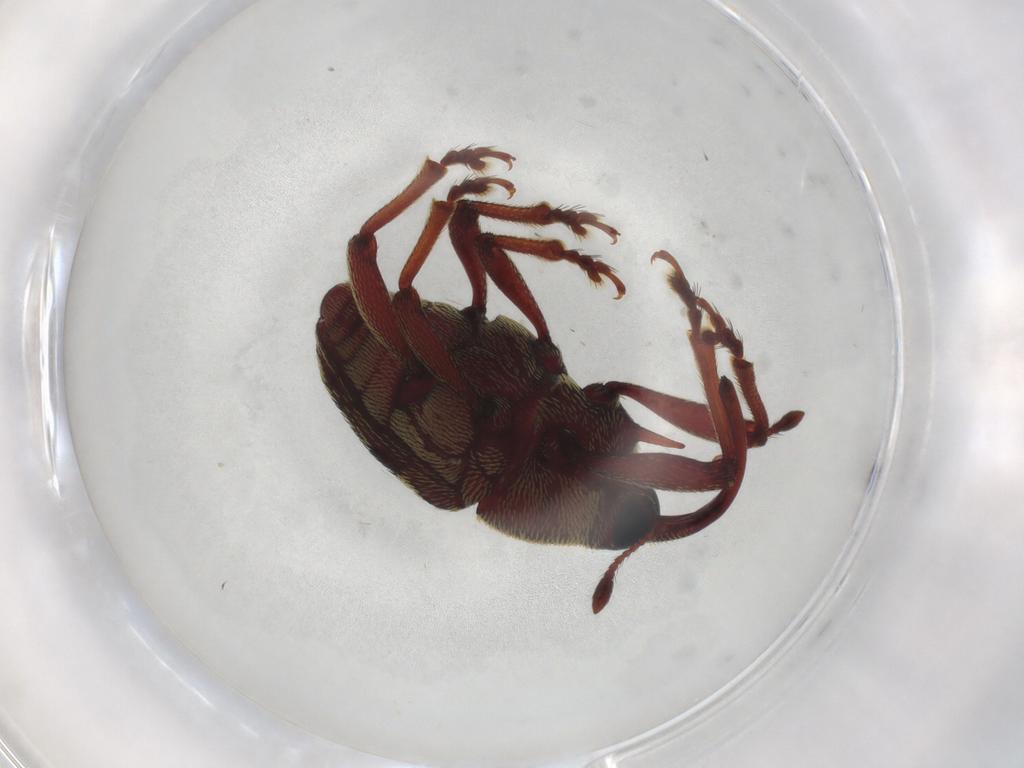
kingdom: Animalia
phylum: Arthropoda
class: Insecta
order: Coleoptera
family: Curculionidae
